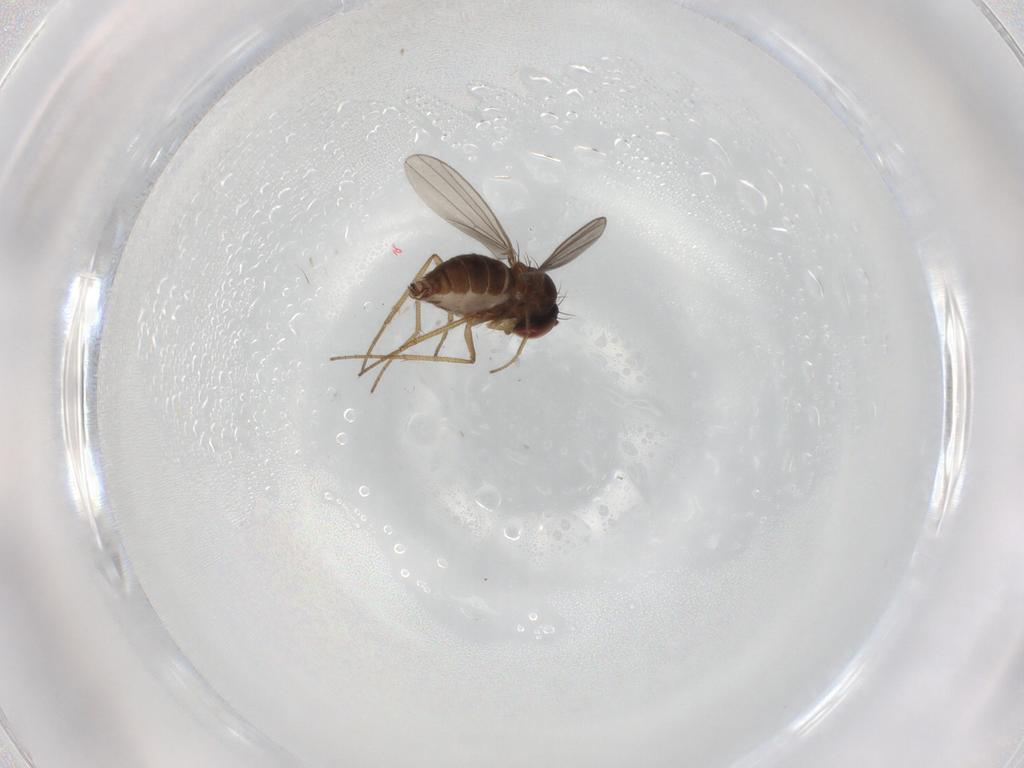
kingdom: Animalia
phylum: Arthropoda
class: Insecta
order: Diptera
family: Dolichopodidae
